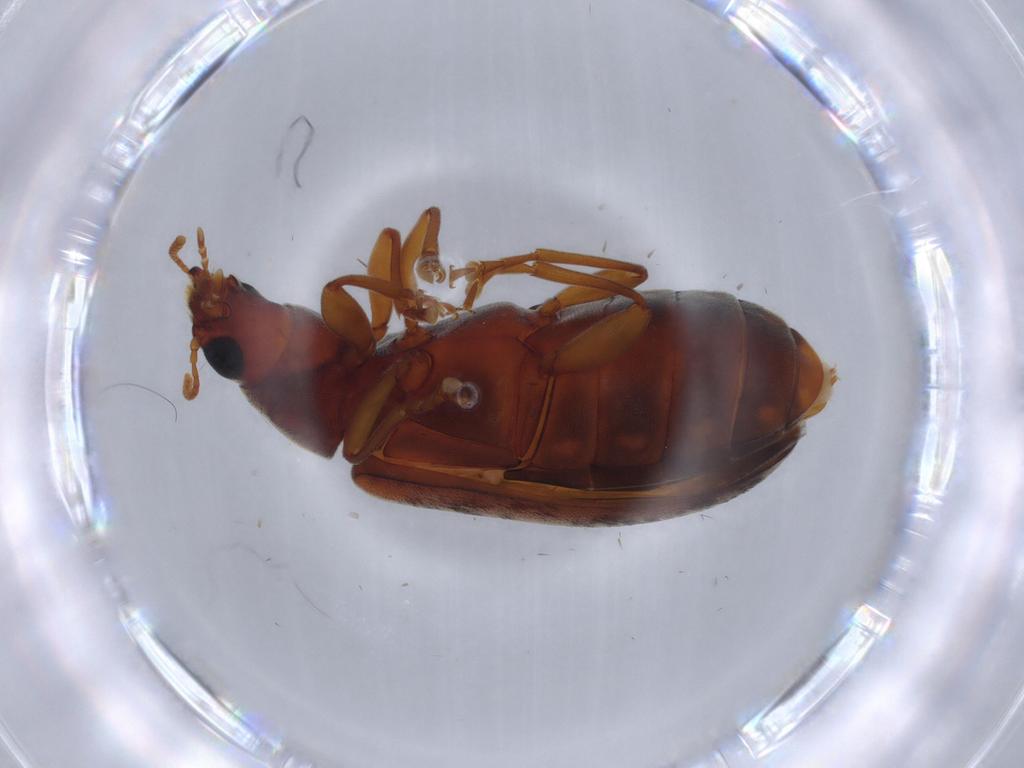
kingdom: Animalia
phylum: Arthropoda
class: Insecta
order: Coleoptera
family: Mycteridae
